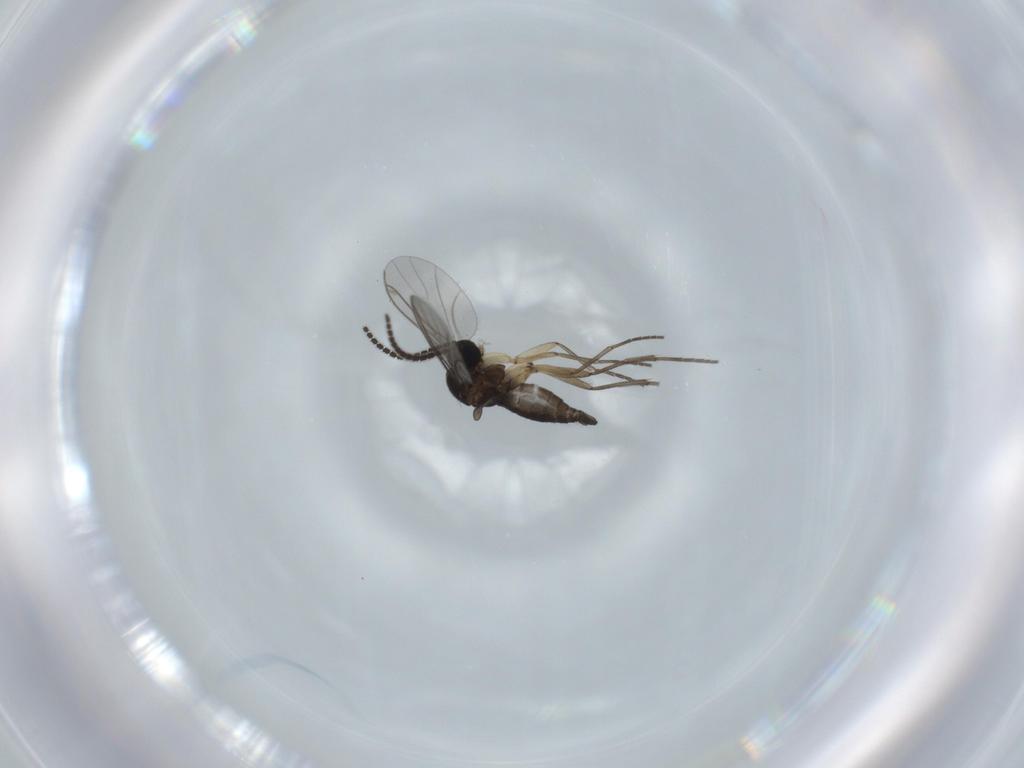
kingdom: Animalia
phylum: Arthropoda
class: Insecta
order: Diptera
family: Sciaridae
